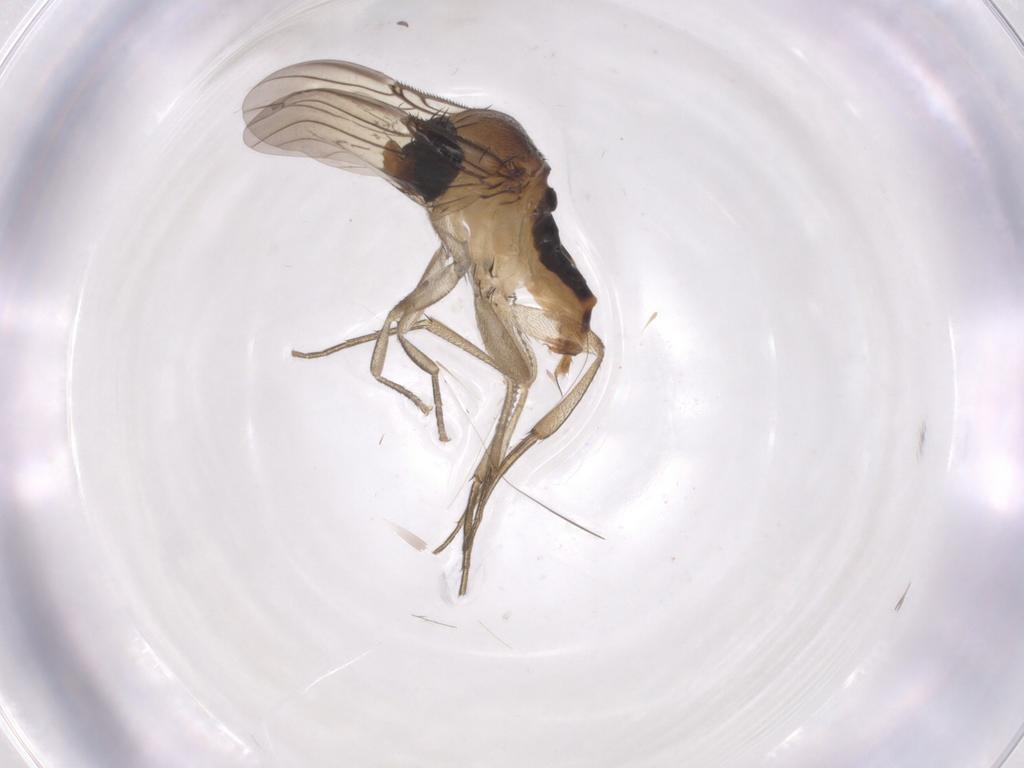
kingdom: Animalia
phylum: Arthropoda
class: Insecta
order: Diptera
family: Phoridae
